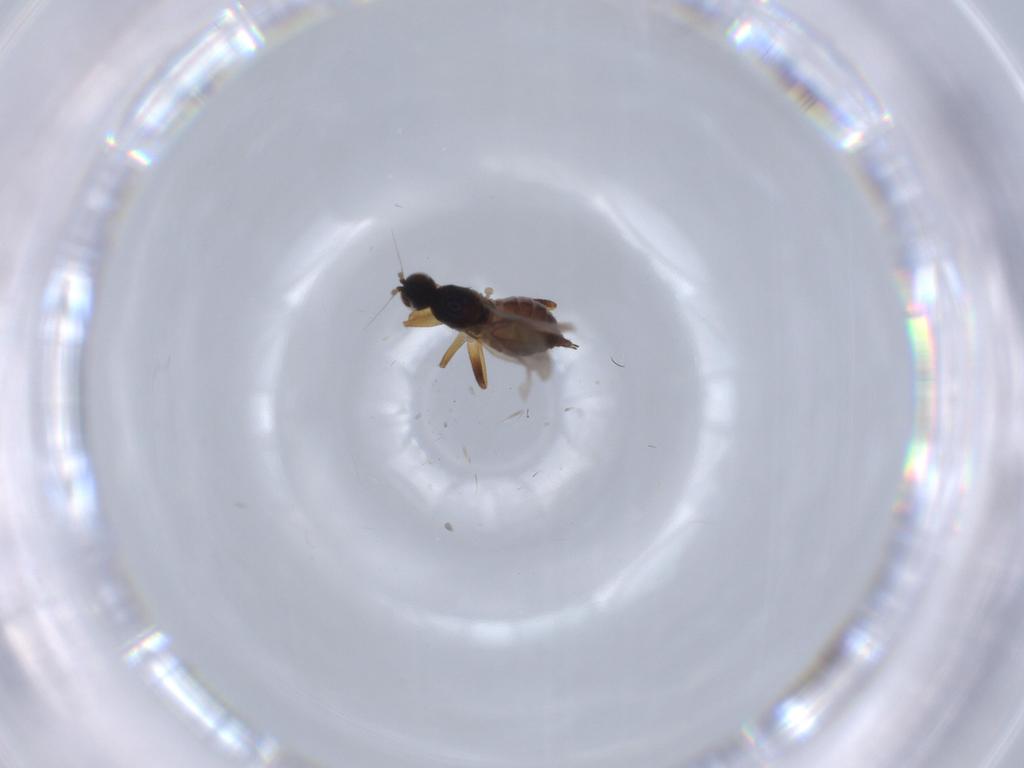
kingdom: Animalia
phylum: Arthropoda
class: Insecta
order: Diptera
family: Hybotidae
